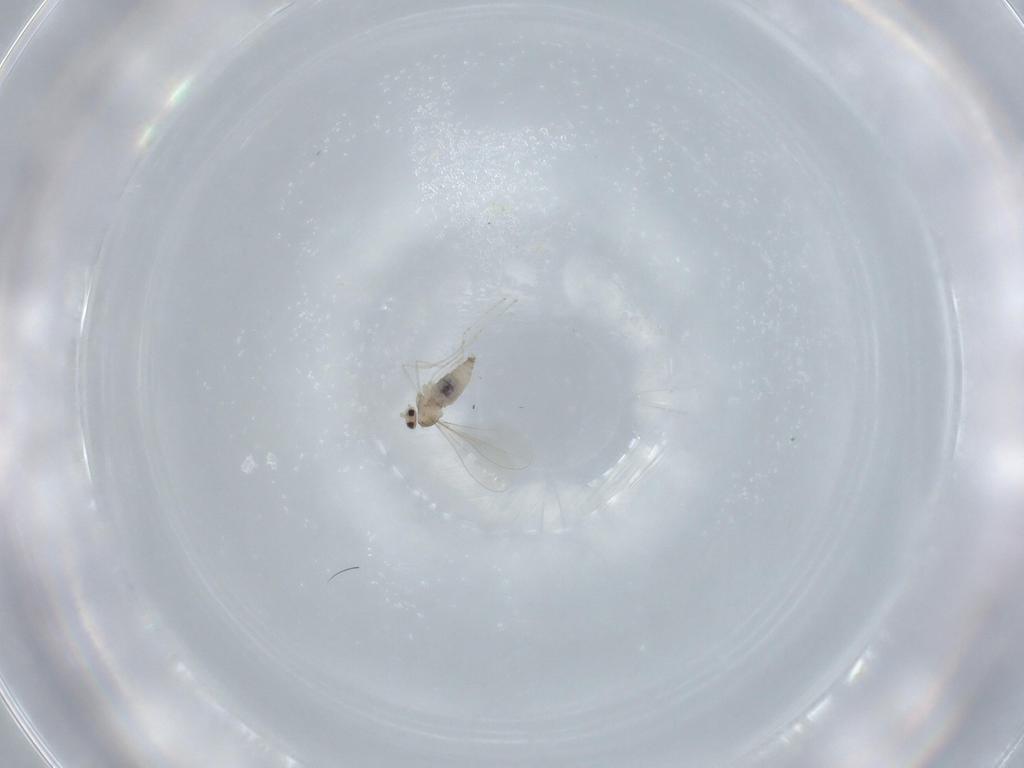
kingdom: Animalia
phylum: Arthropoda
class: Insecta
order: Diptera
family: Cecidomyiidae
